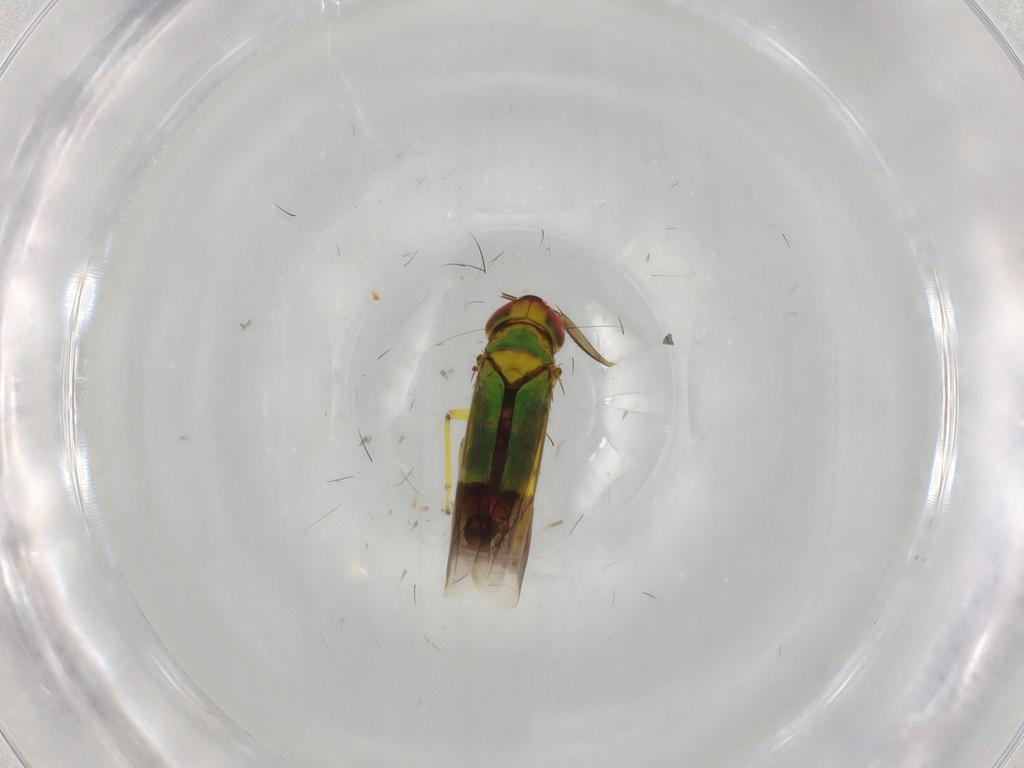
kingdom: Animalia
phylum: Arthropoda
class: Insecta
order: Hemiptera
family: Cicadellidae
